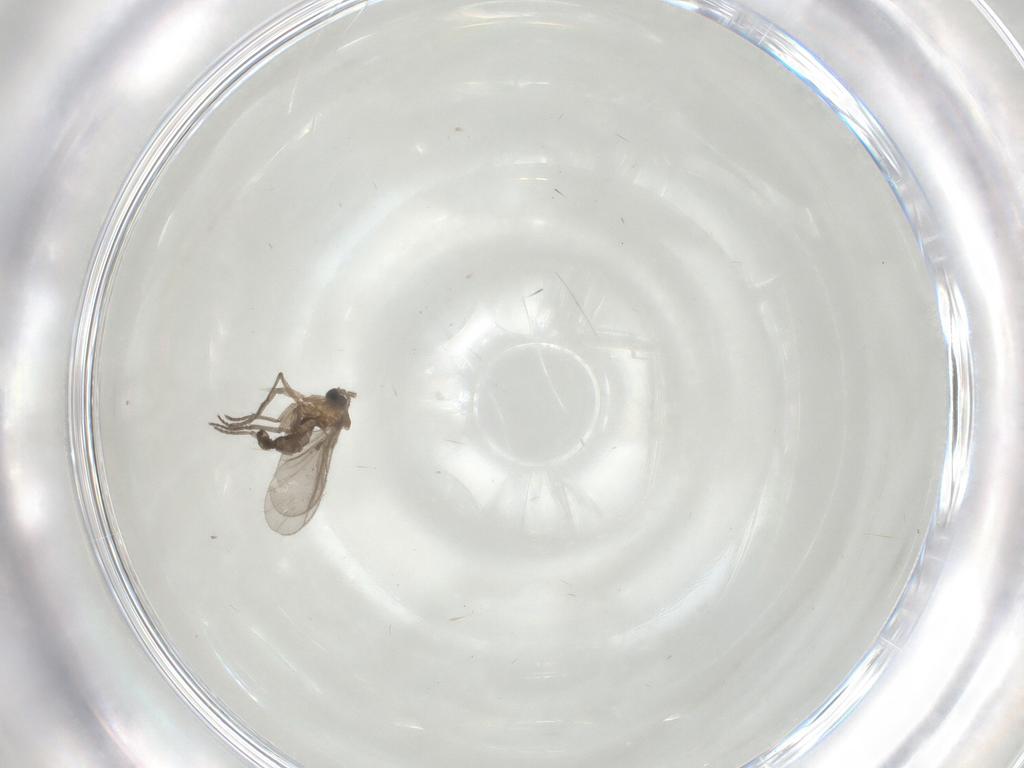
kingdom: Animalia
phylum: Arthropoda
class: Insecta
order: Diptera
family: Sciaridae
